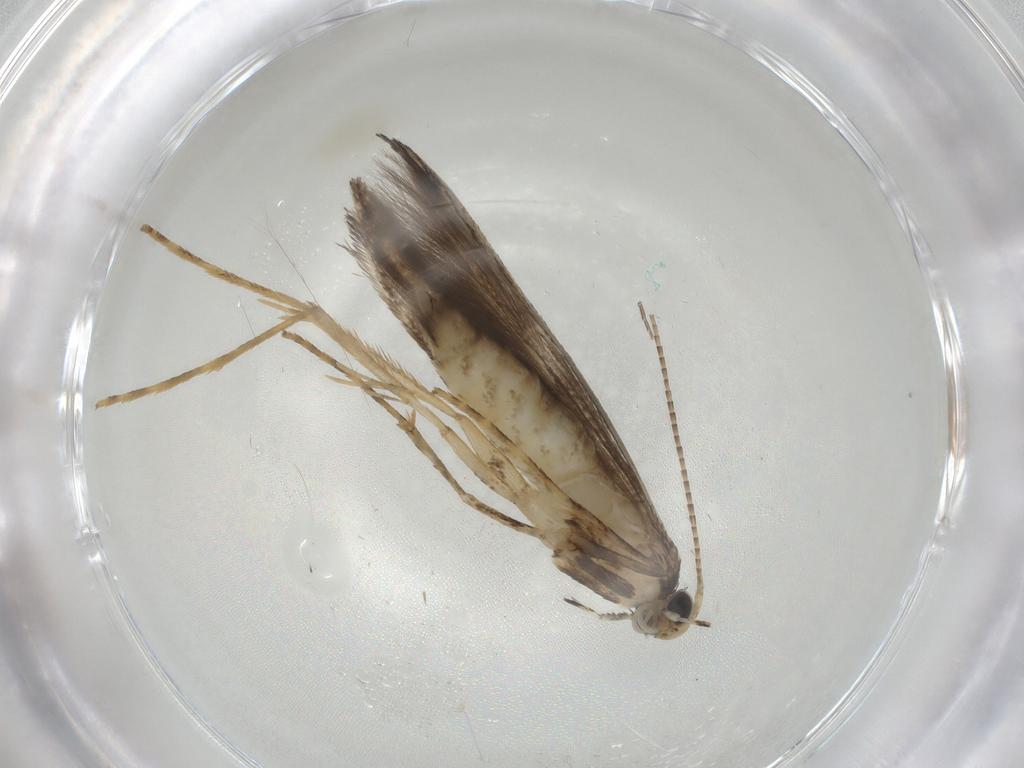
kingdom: Animalia
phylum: Arthropoda
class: Insecta
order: Lepidoptera
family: Gracillariidae
